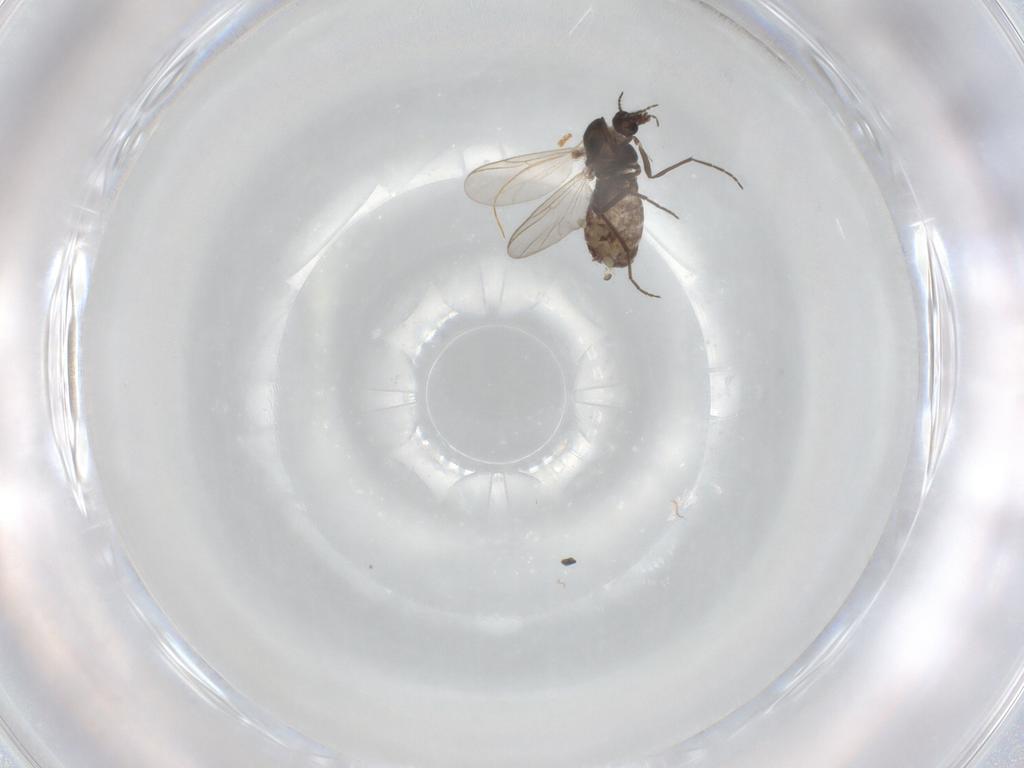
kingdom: Animalia
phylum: Arthropoda
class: Insecta
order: Diptera
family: Chironomidae
